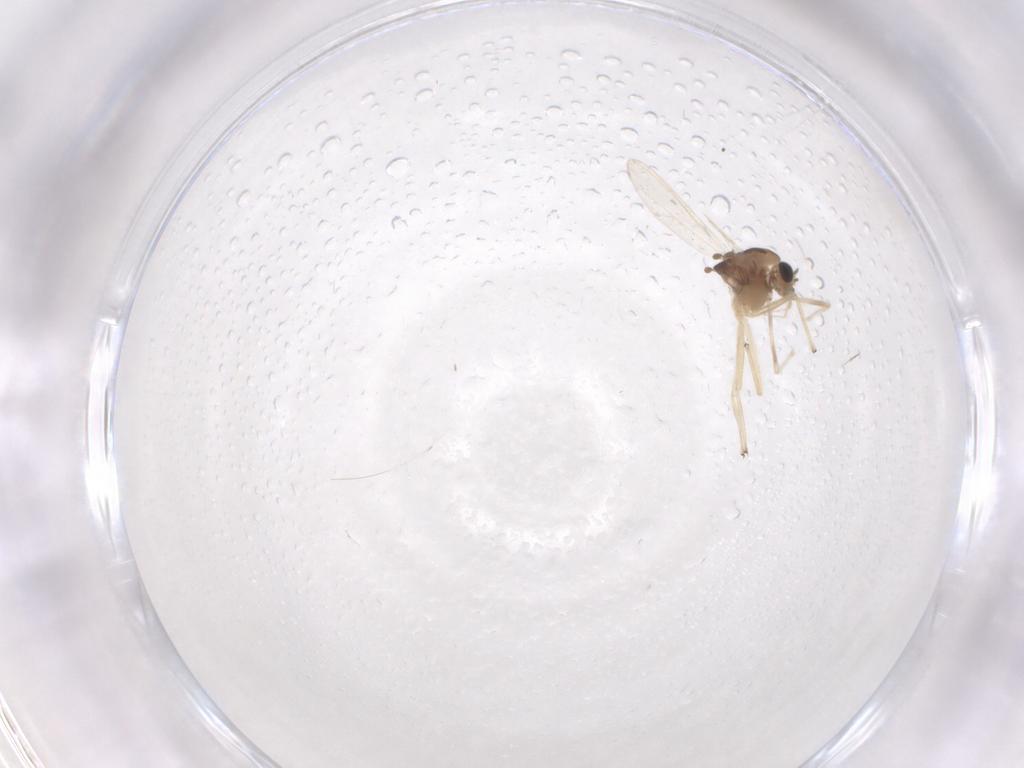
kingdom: Animalia
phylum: Arthropoda
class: Insecta
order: Diptera
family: Chironomidae
